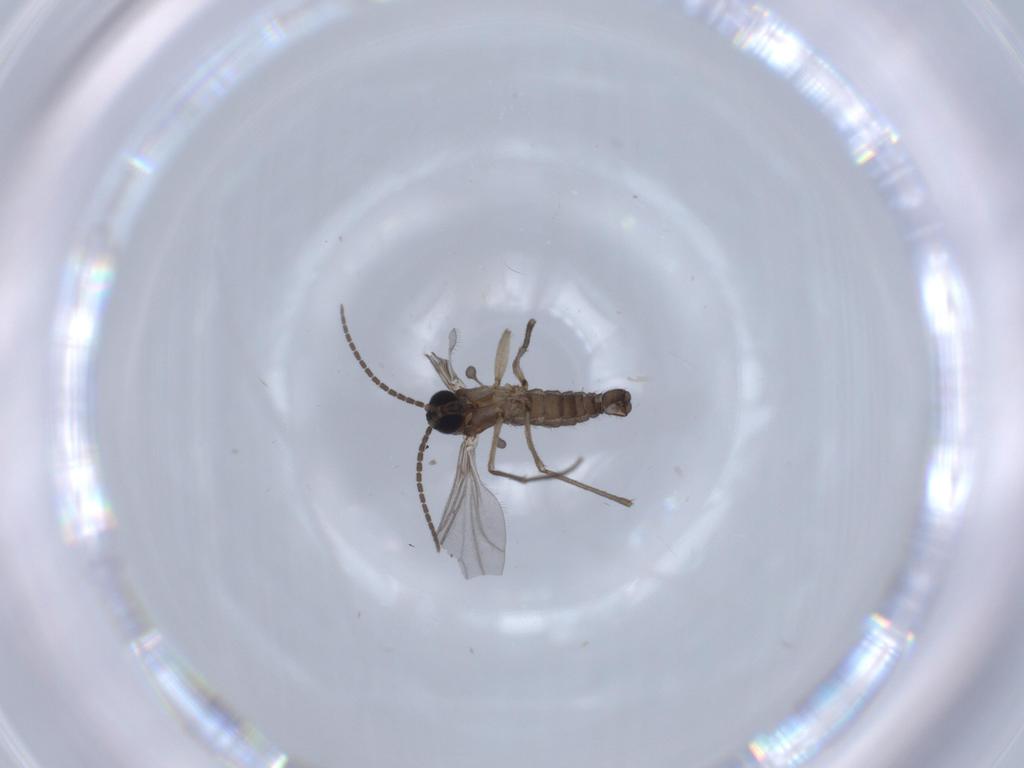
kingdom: Animalia
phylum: Arthropoda
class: Insecta
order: Diptera
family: Sciaridae
